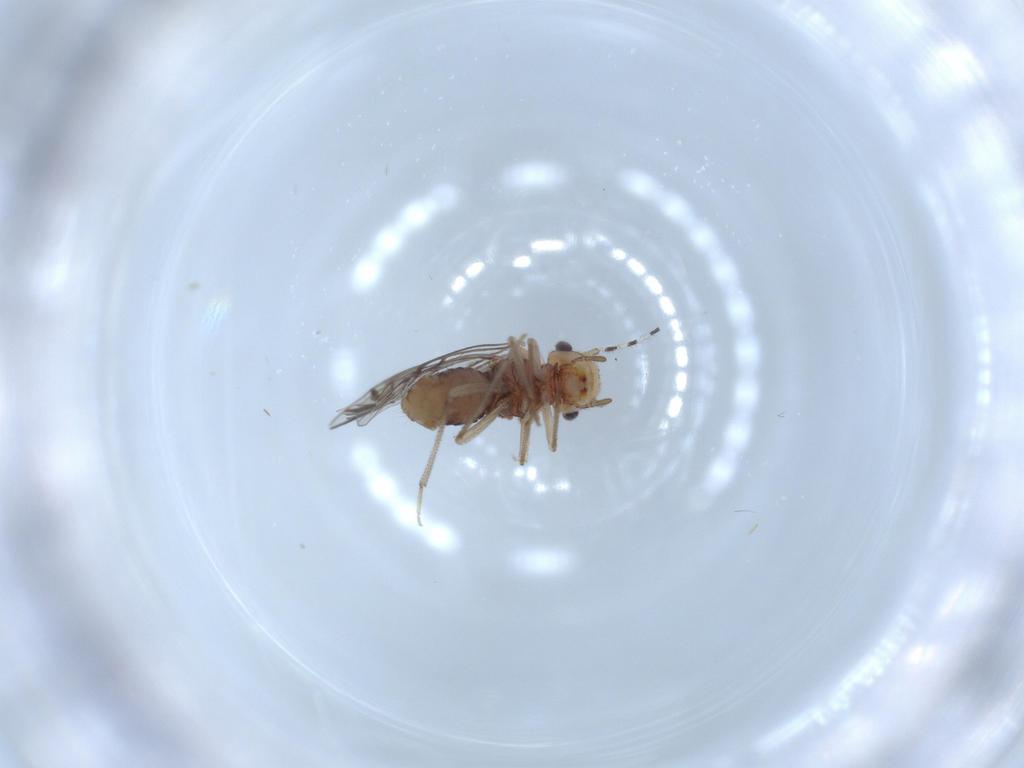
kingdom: Animalia
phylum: Arthropoda
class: Insecta
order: Psocodea
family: Amphipsocidae
